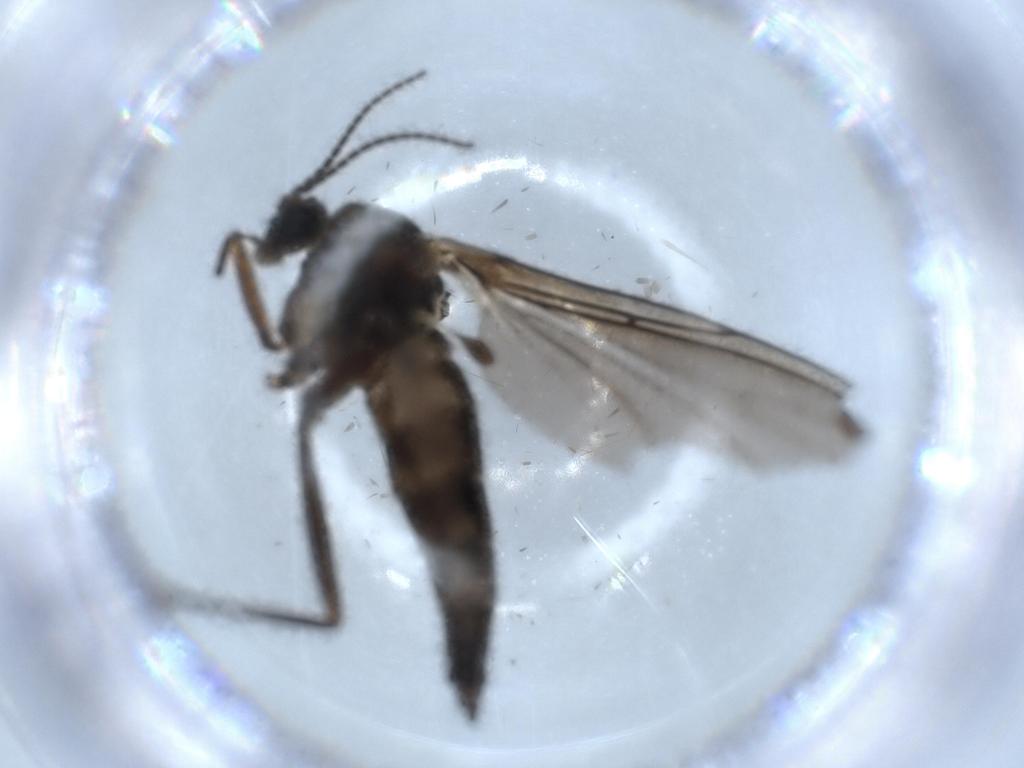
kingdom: Animalia
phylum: Arthropoda
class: Insecta
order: Diptera
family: Sciaridae
